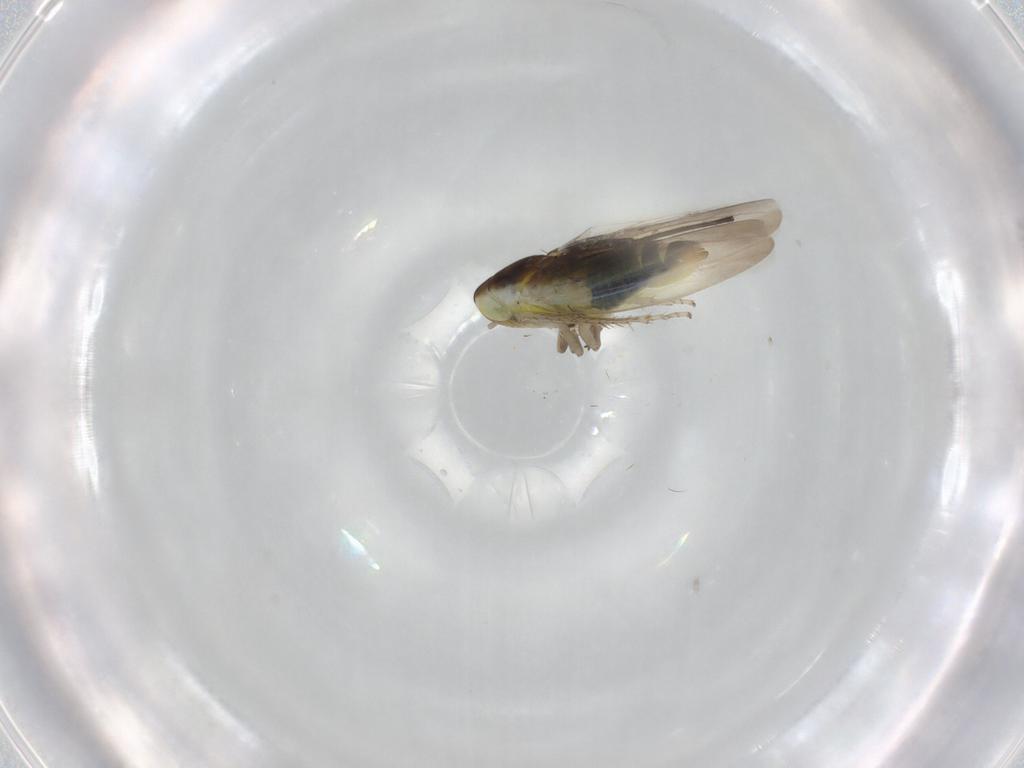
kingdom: Animalia
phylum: Arthropoda
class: Insecta
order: Hemiptera
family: Cicadellidae
